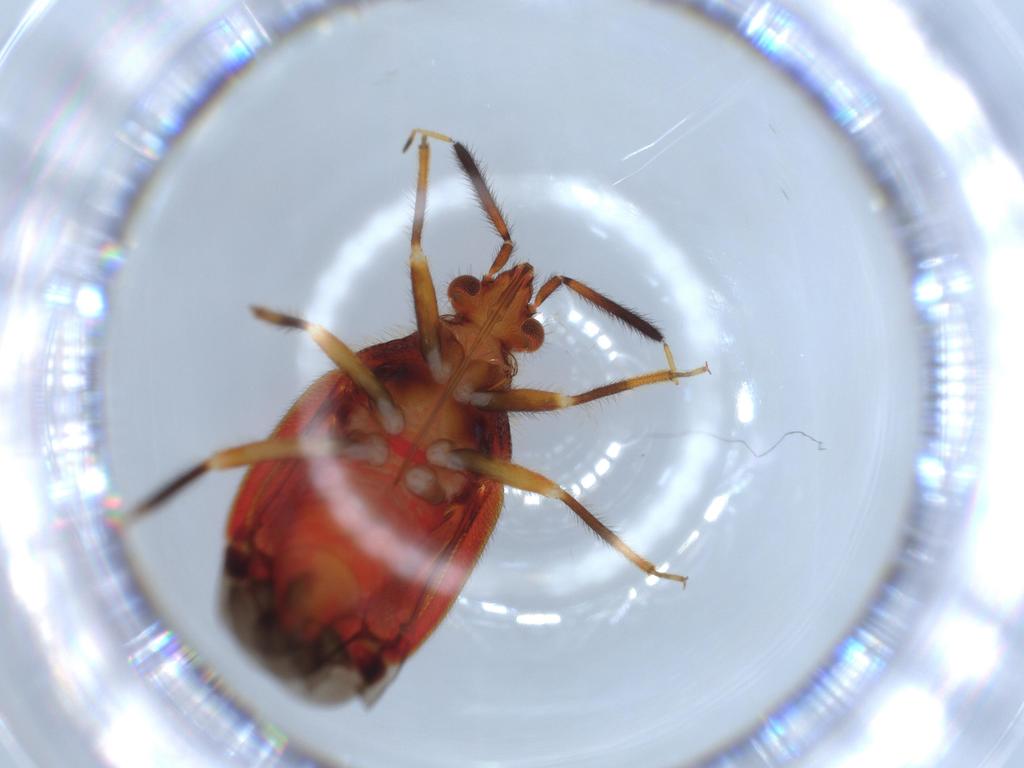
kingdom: Animalia
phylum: Arthropoda
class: Insecta
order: Hemiptera
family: Miridae
